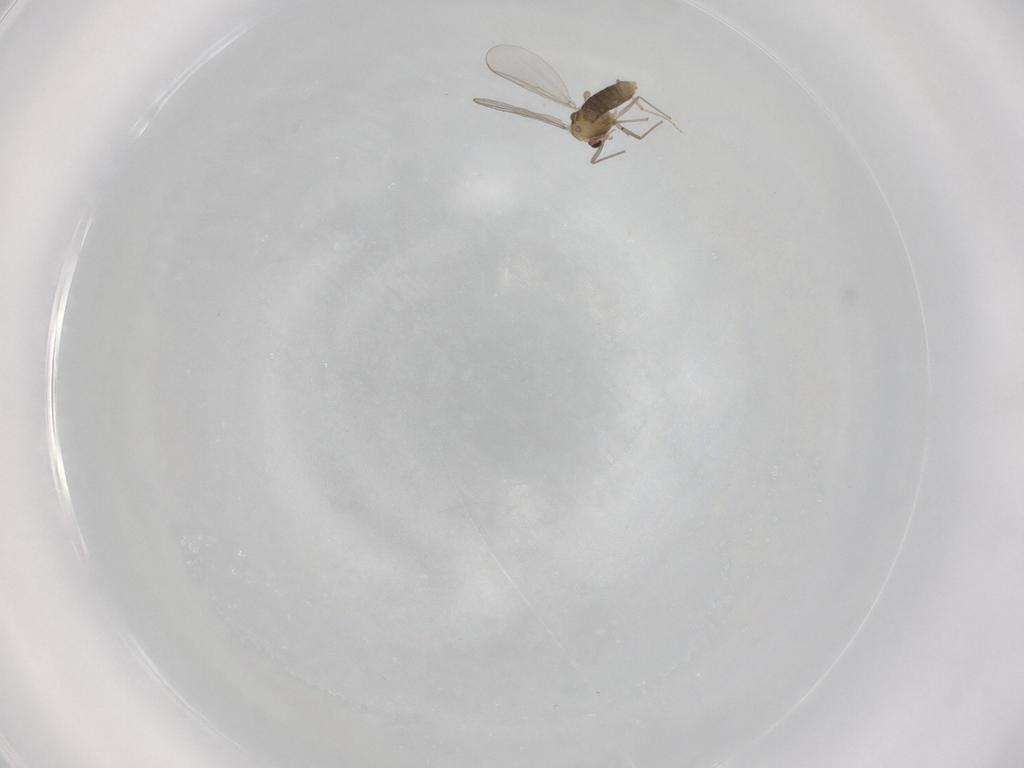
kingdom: Animalia
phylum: Arthropoda
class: Insecta
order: Diptera
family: Chironomidae
